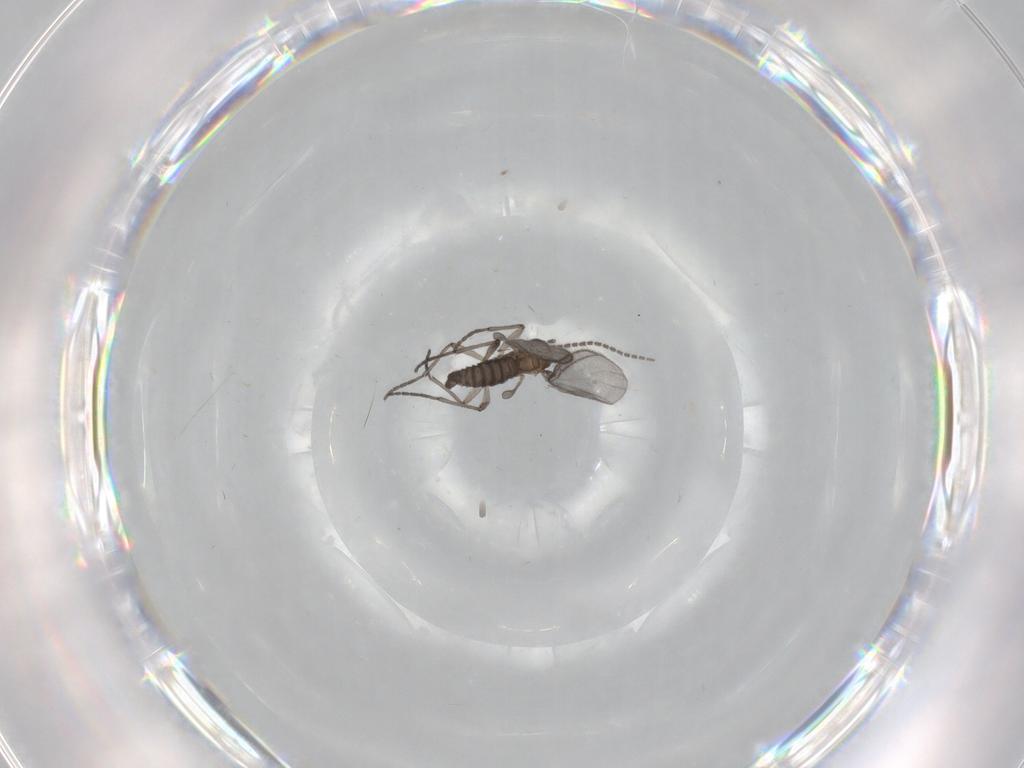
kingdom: Animalia
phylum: Arthropoda
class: Insecta
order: Diptera
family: Sciaridae
